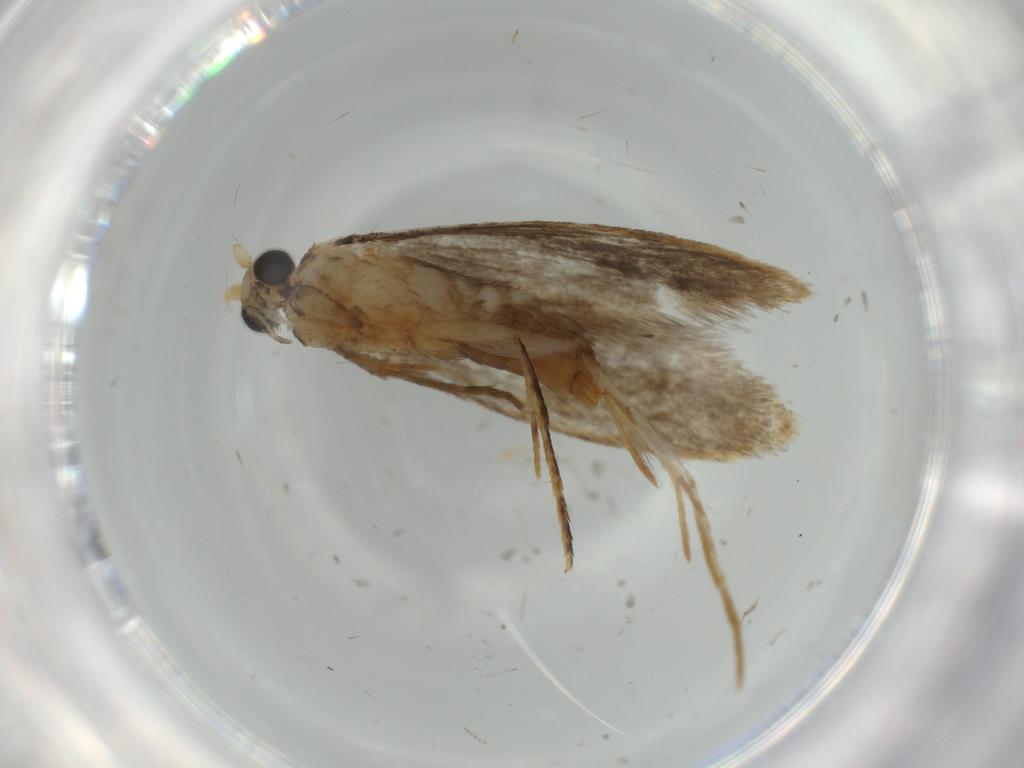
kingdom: Animalia
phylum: Arthropoda
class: Insecta
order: Lepidoptera
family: Tineidae
